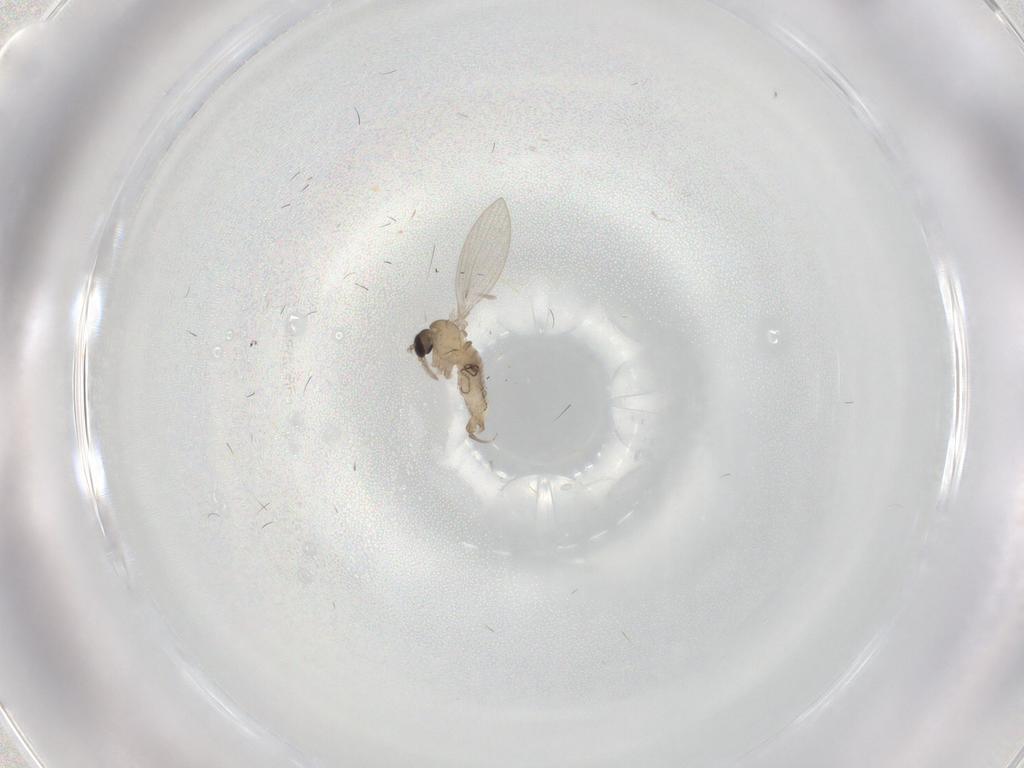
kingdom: Animalia
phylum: Arthropoda
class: Insecta
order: Diptera
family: Psychodidae
